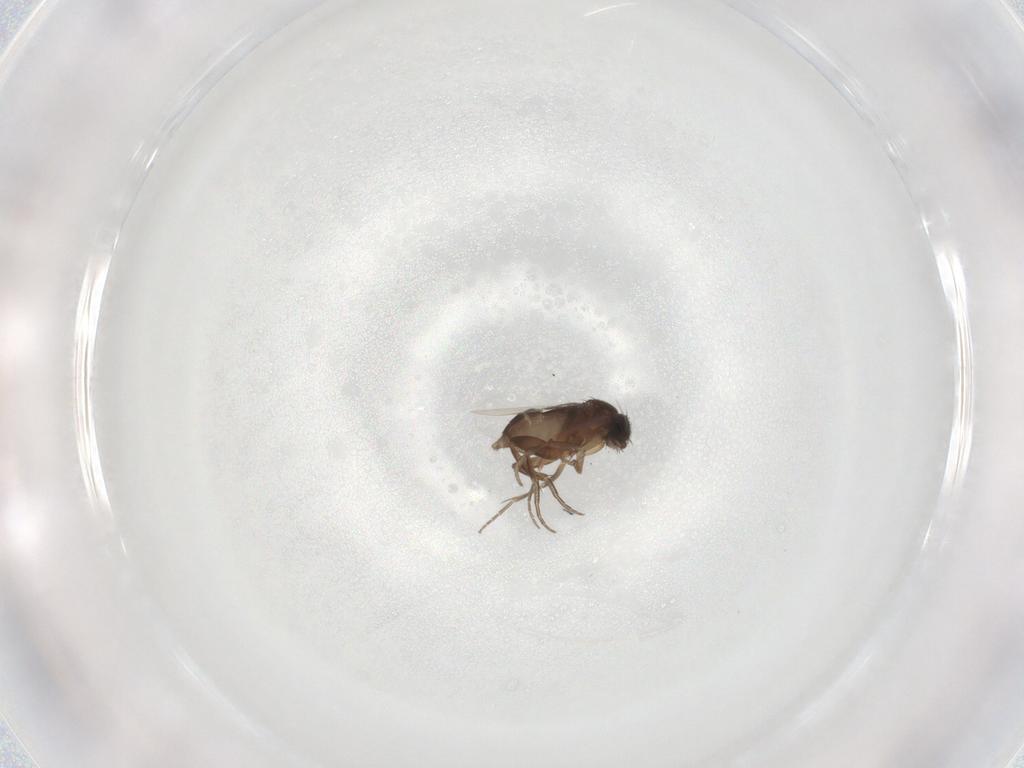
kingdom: Animalia
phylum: Arthropoda
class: Insecta
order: Diptera
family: Phoridae
